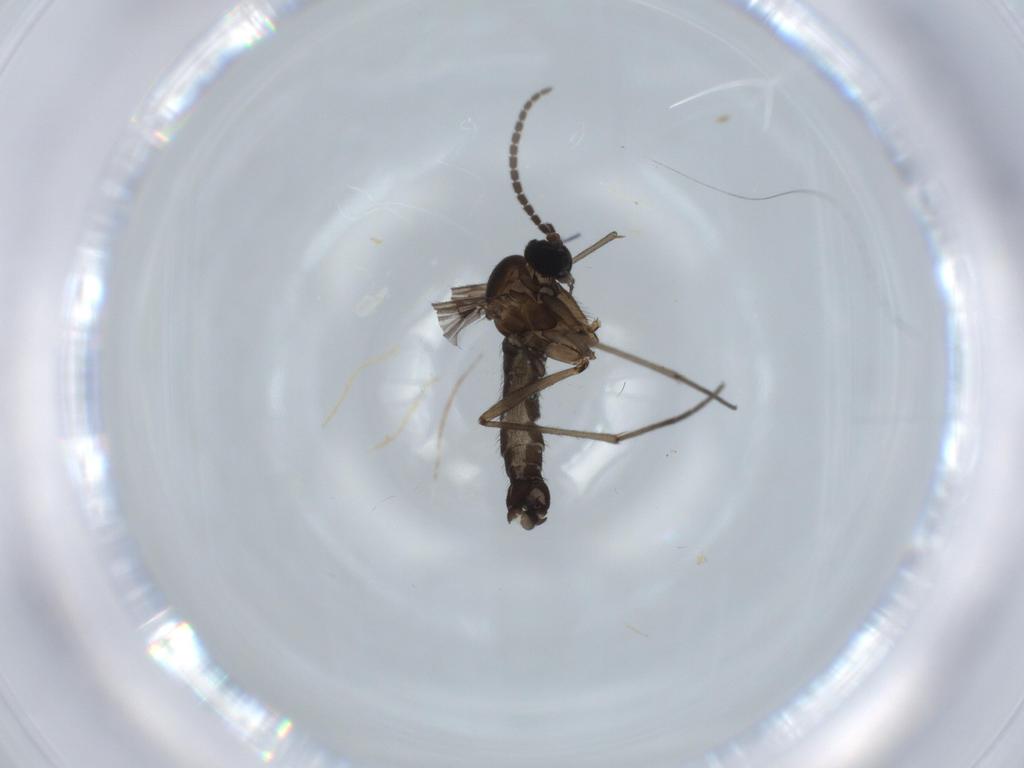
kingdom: Animalia
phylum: Arthropoda
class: Insecta
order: Diptera
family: Sciaridae
